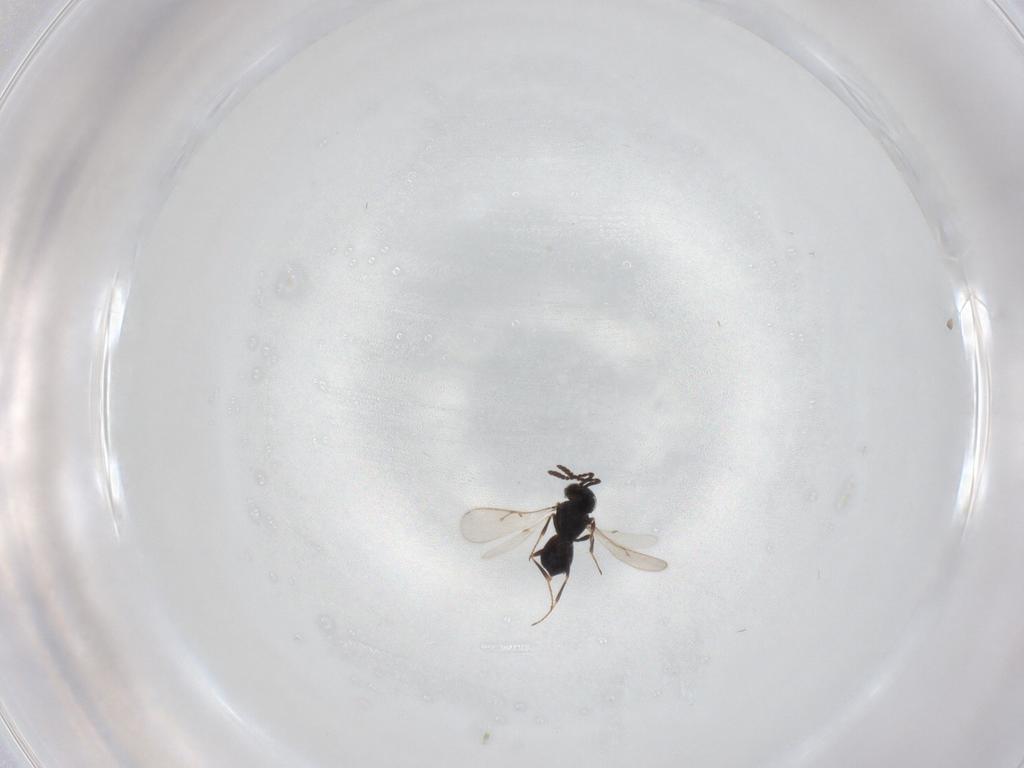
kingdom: Animalia
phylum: Arthropoda
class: Insecta
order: Hymenoptera
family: Scelionidae
